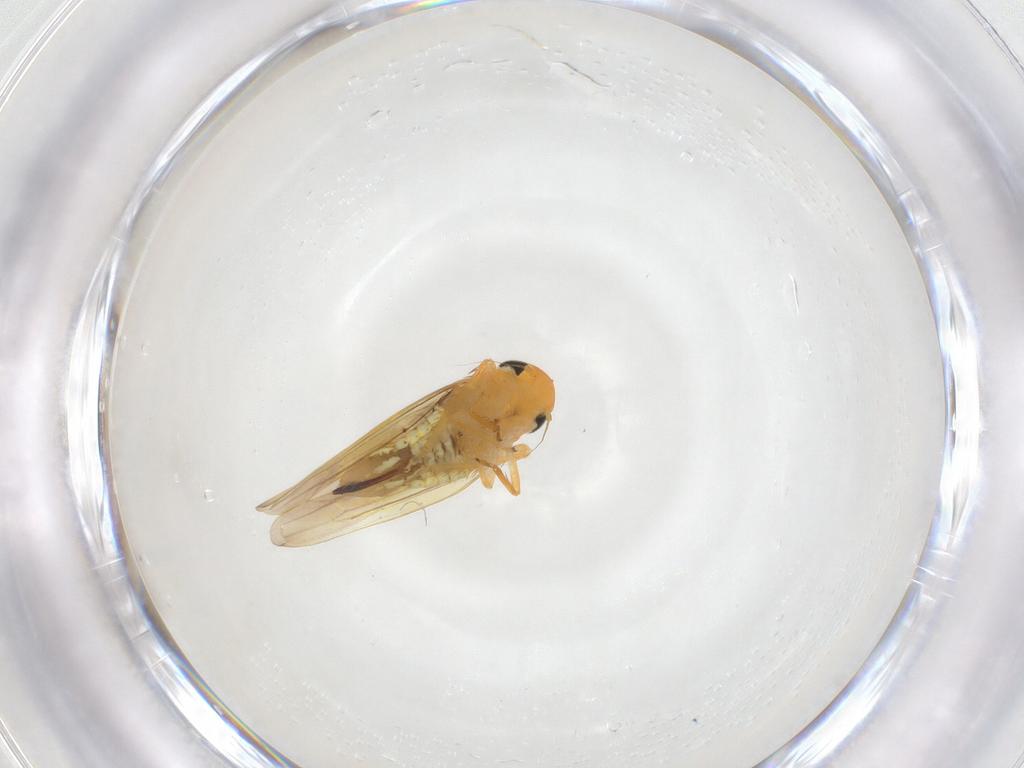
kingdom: Animalia
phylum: Arthropoda
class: Insecta
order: Hemiptera
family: Cicadellidae
